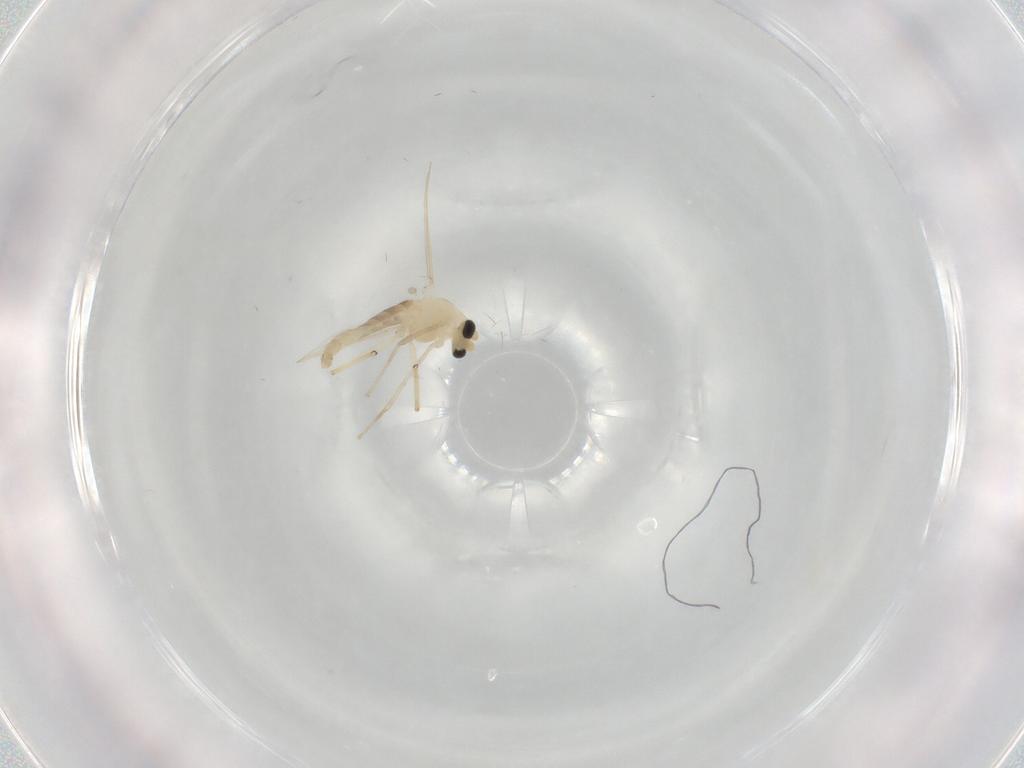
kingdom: Animalia
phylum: Arthropoda
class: Insecta
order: Diptera
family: Chironomidae
